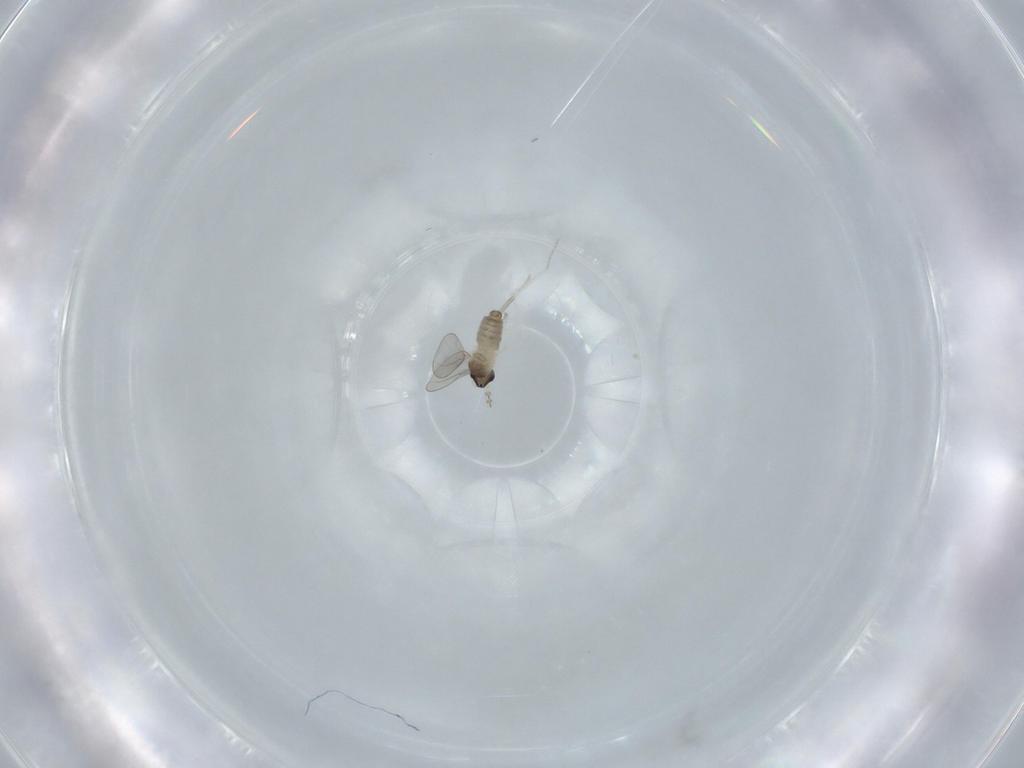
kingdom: Animalia
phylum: Arthropoda
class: Insecta
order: Diptera
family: Cecidomyiidae
